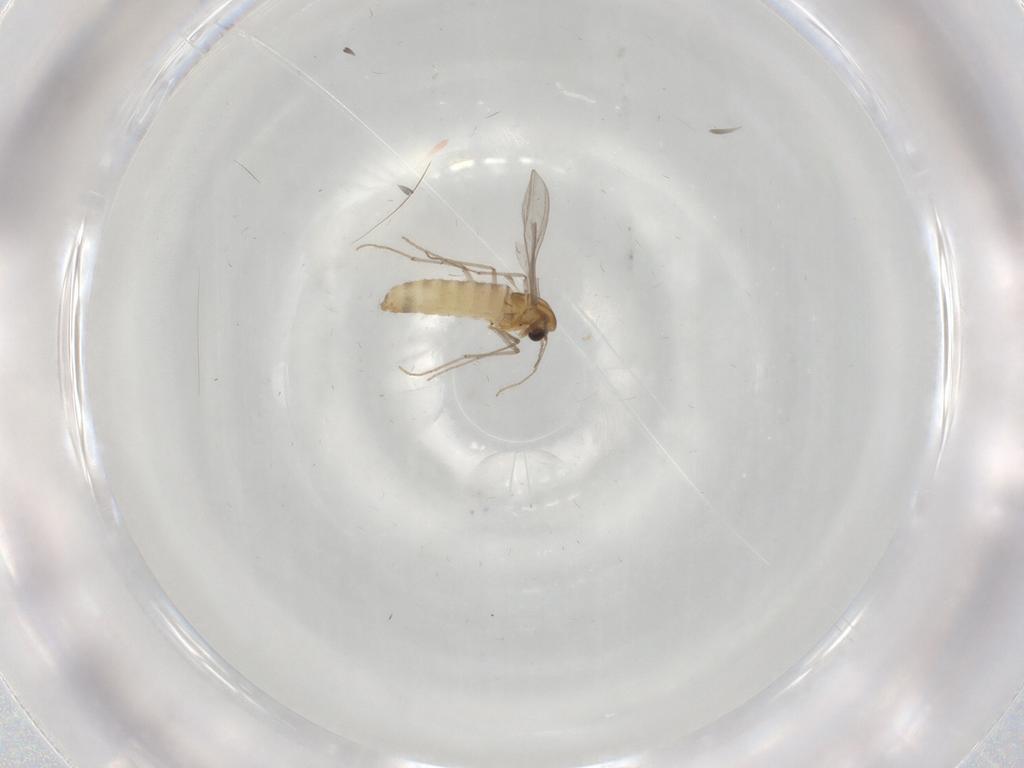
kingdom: Animalia
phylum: Arthropoda
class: Insecta
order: Diptera
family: Chironomidae
